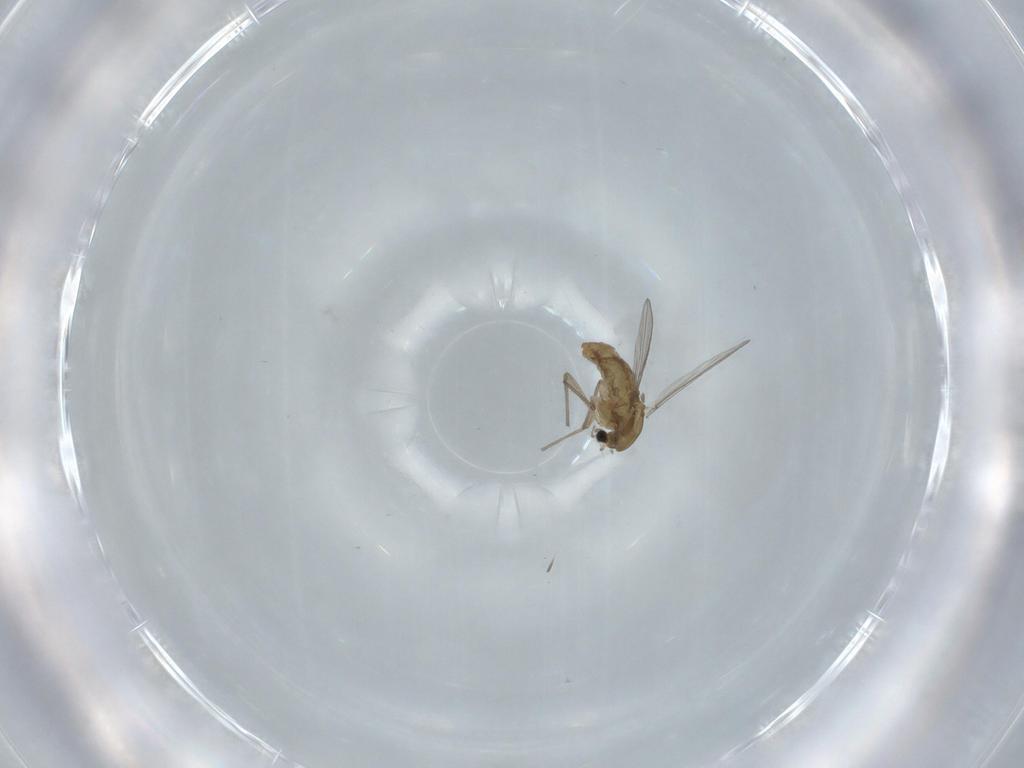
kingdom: Animalia
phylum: Arthropoda
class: Insecta
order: Diptera
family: Chironomidae
